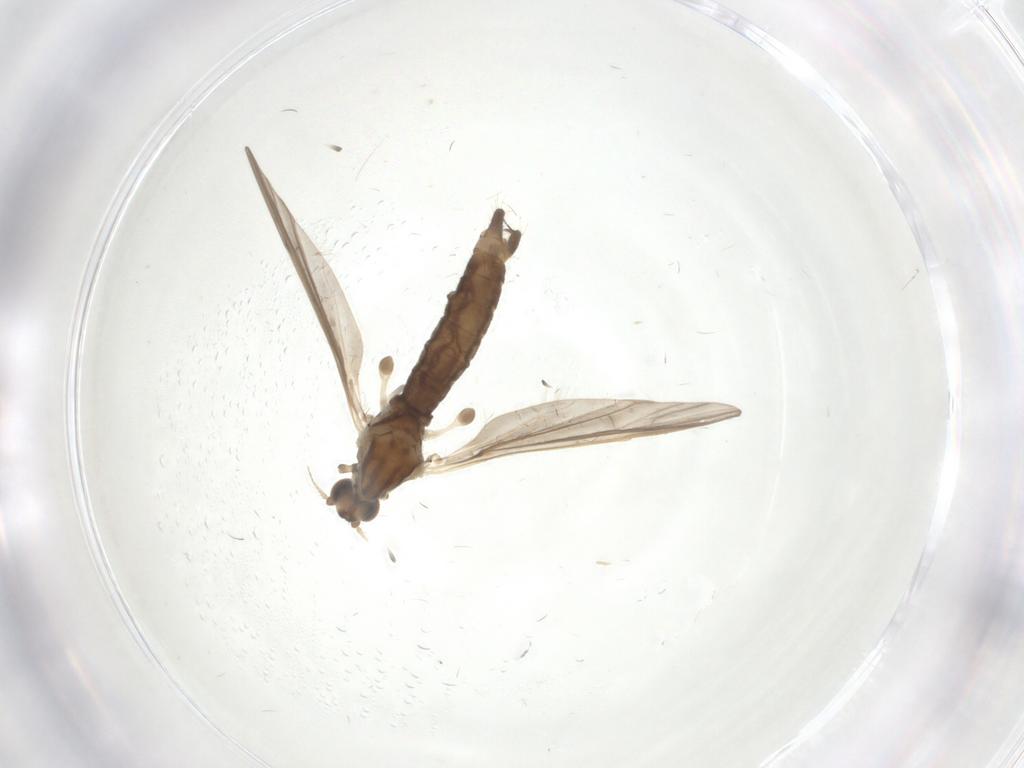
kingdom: Animalia
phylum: Arthropoda
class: Insecta
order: Diptera
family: Limoniidae
